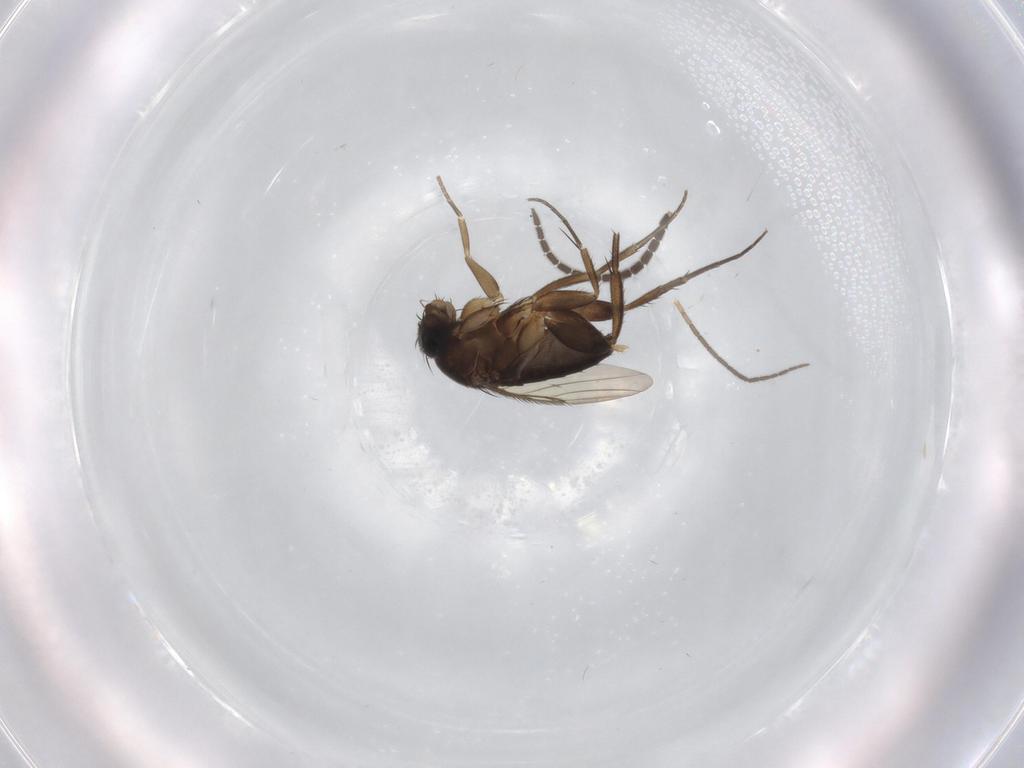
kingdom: Animalia
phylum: Arthropoda
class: Insecta
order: Diptera
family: Phoridae
